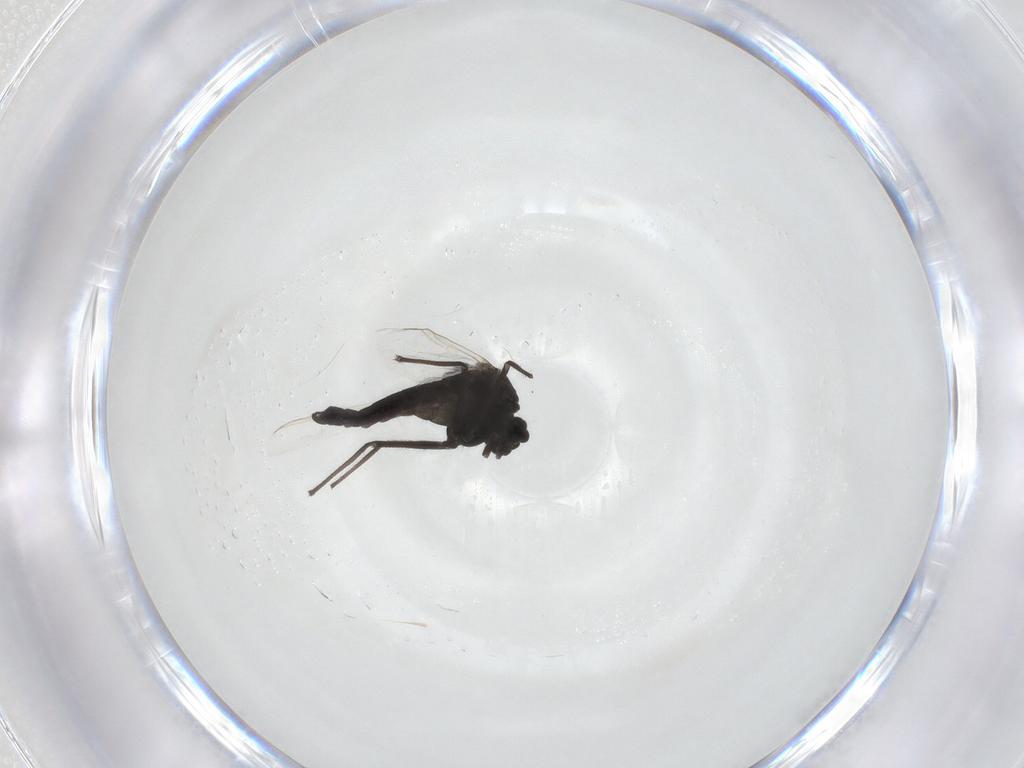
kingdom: Animalia
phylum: Arthropoda
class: Insecta
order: Diptera
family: Chironomidae
